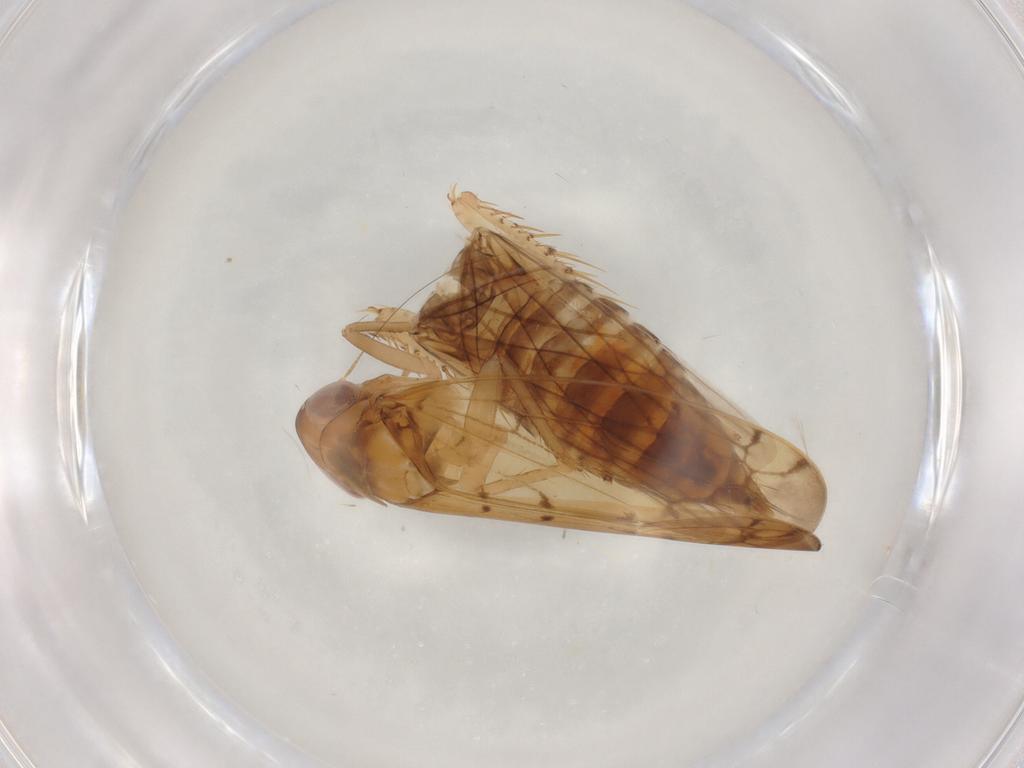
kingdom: Animalia
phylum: Arthropoda
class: Insecta
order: Hemiptera
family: Cicadellidae
